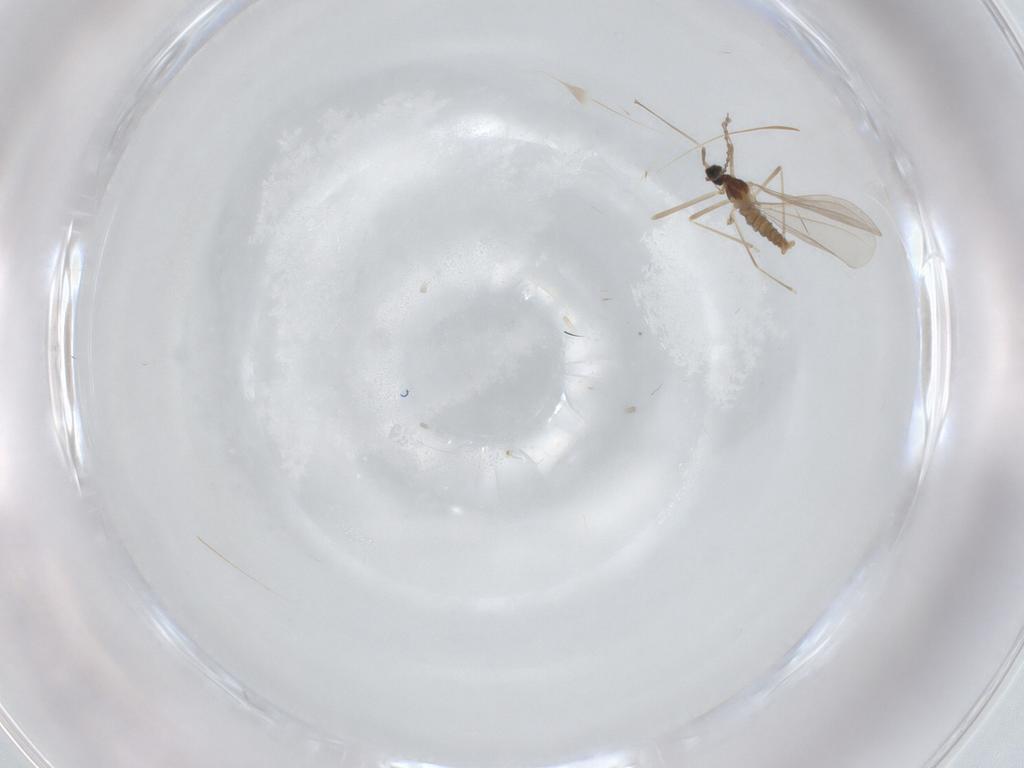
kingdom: Animalia
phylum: Arthropoda
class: Insecta
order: Diptera
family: Cecidomyiidae
